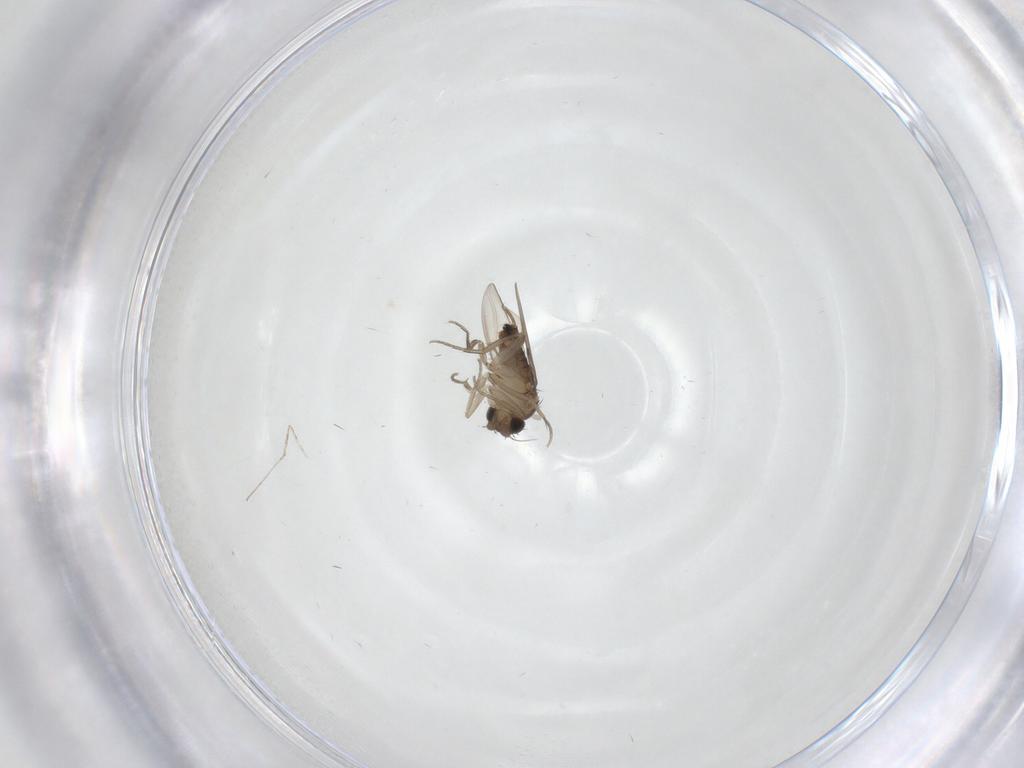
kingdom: Animalia
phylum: Arthropoda
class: Insecta
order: Diptera
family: Phoridae
